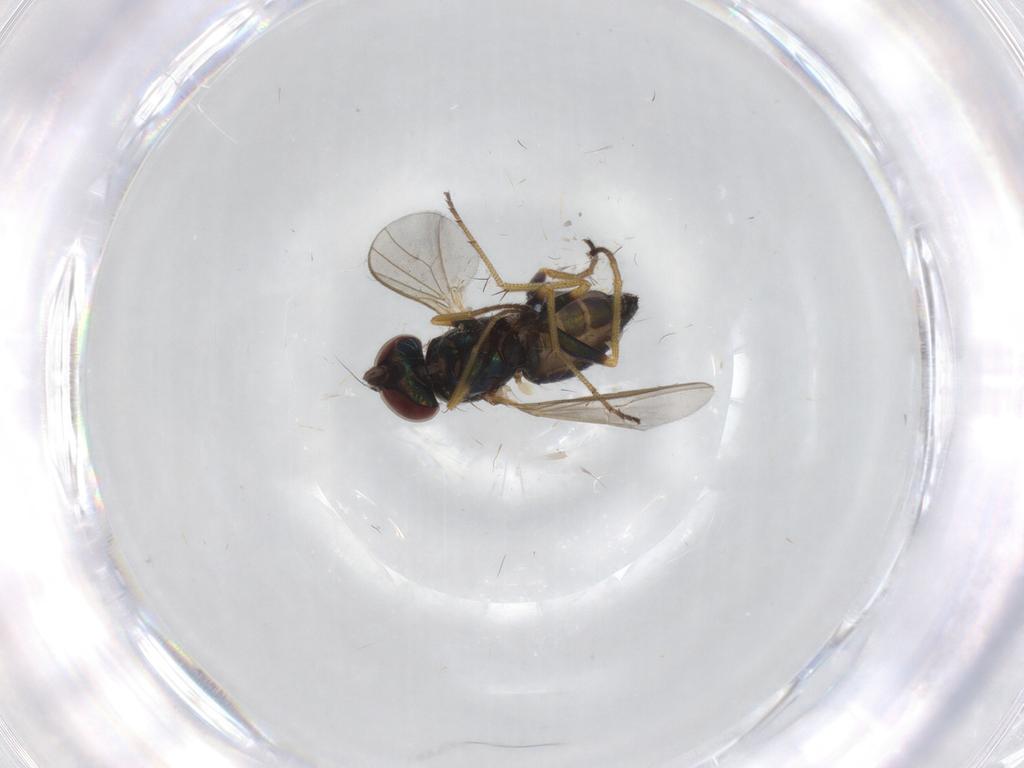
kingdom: Animalia
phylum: Arthropoda
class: Insecta
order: Diptera
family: Dolichopodidae
